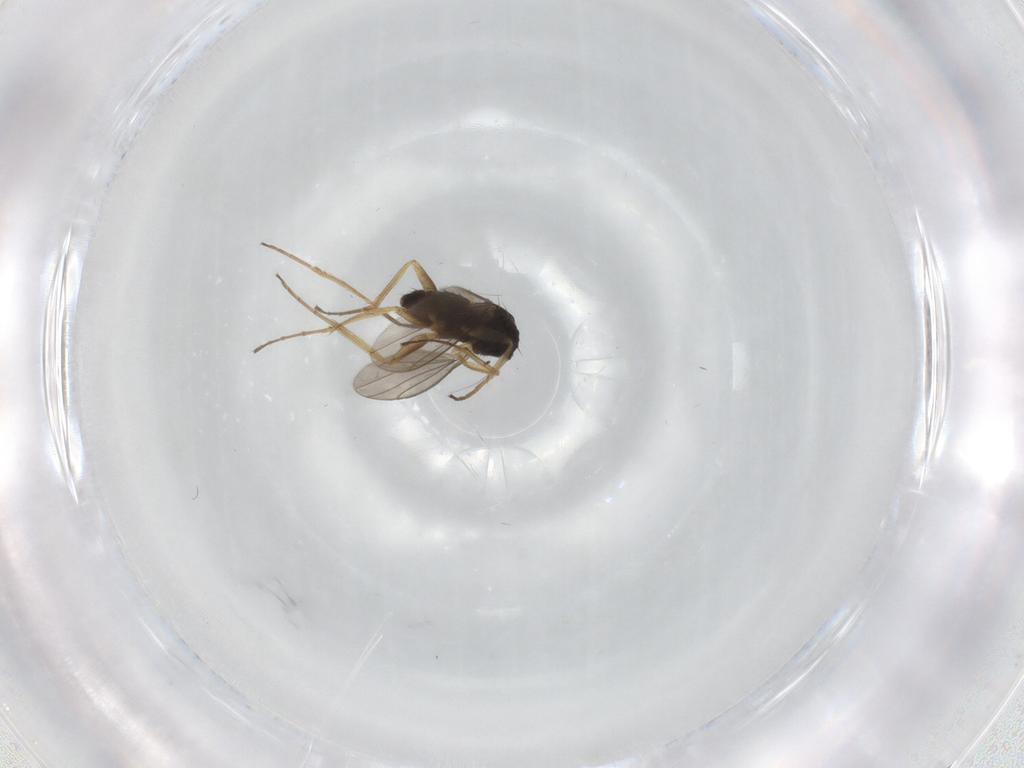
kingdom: Animalia
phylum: Arthropoda
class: Insecta
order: Diptera
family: Dolichopodidae
